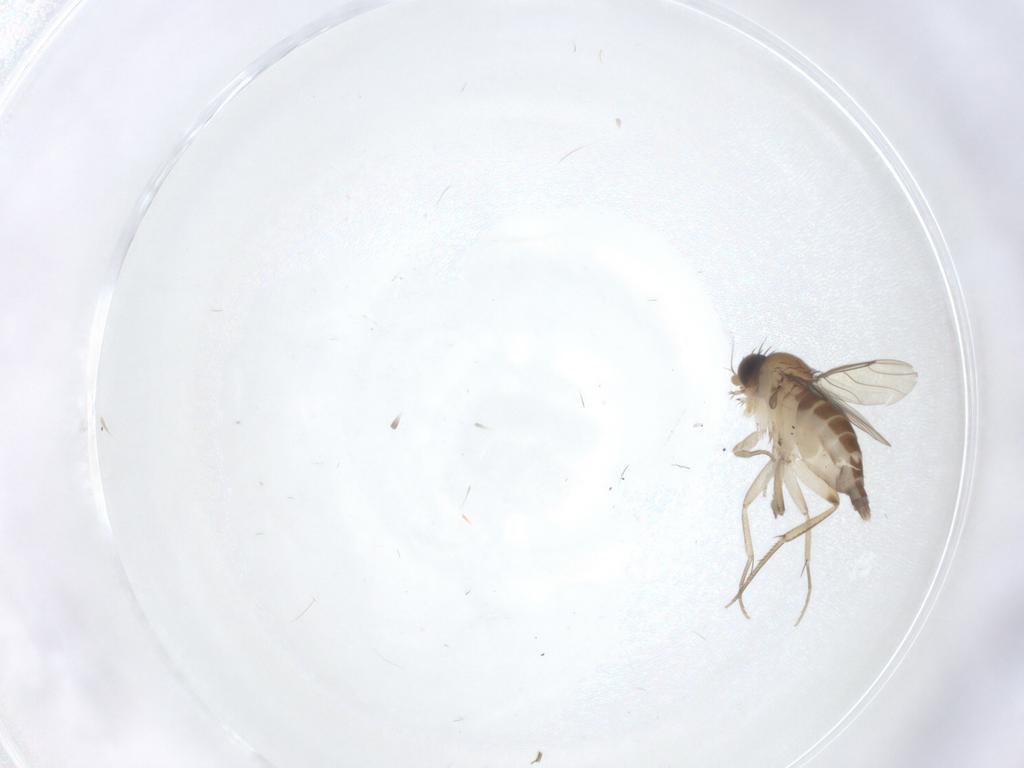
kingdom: Animalia
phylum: Arthropoda
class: Insecta
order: Diptera
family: Phoridae
